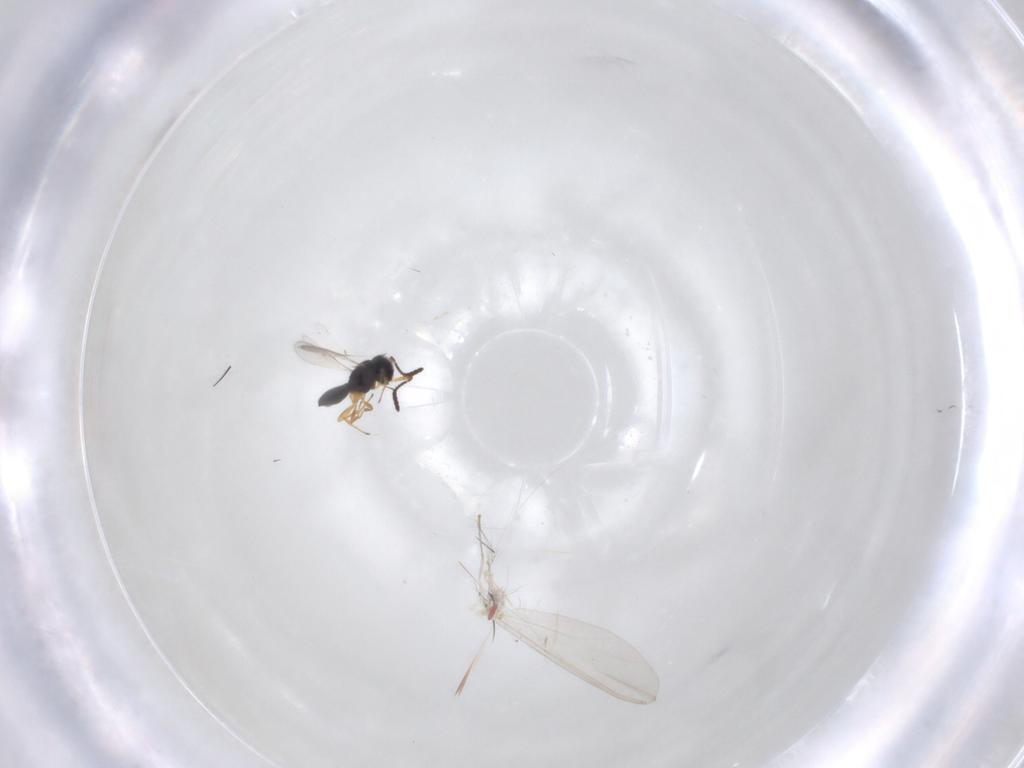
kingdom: Animalia
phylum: Arthropoda
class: Insecta
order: Hymenoptera
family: Scelionidae
